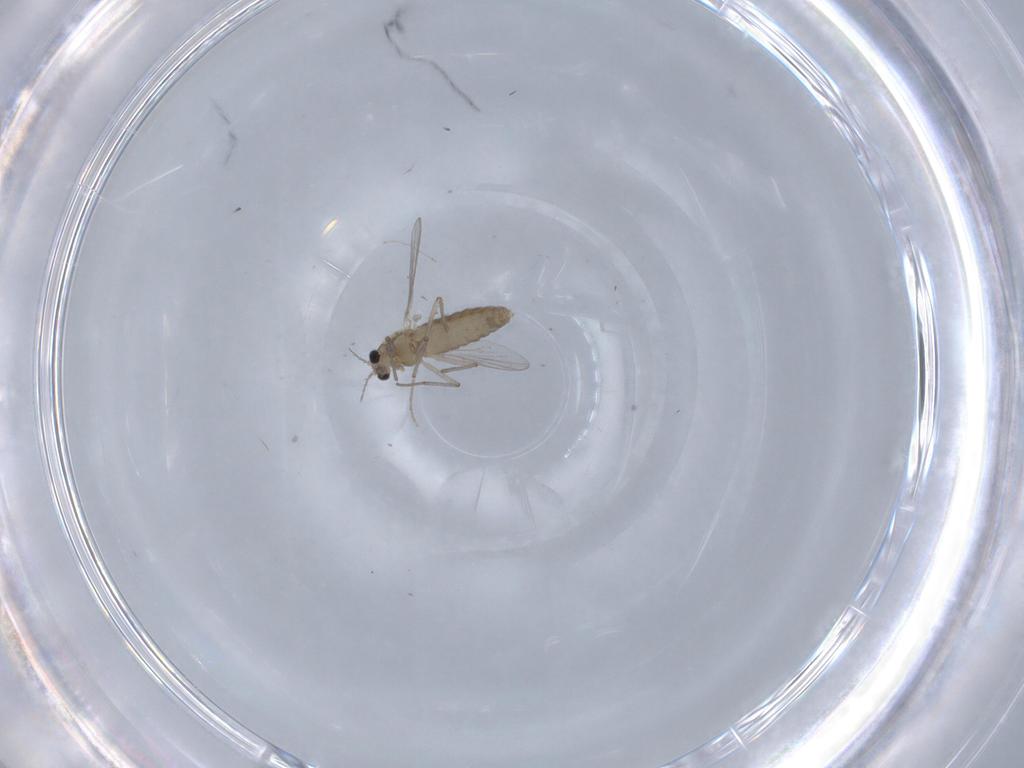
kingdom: Animalia
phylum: Arthropoda
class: Insecta
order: Diptera
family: Chironomidae
